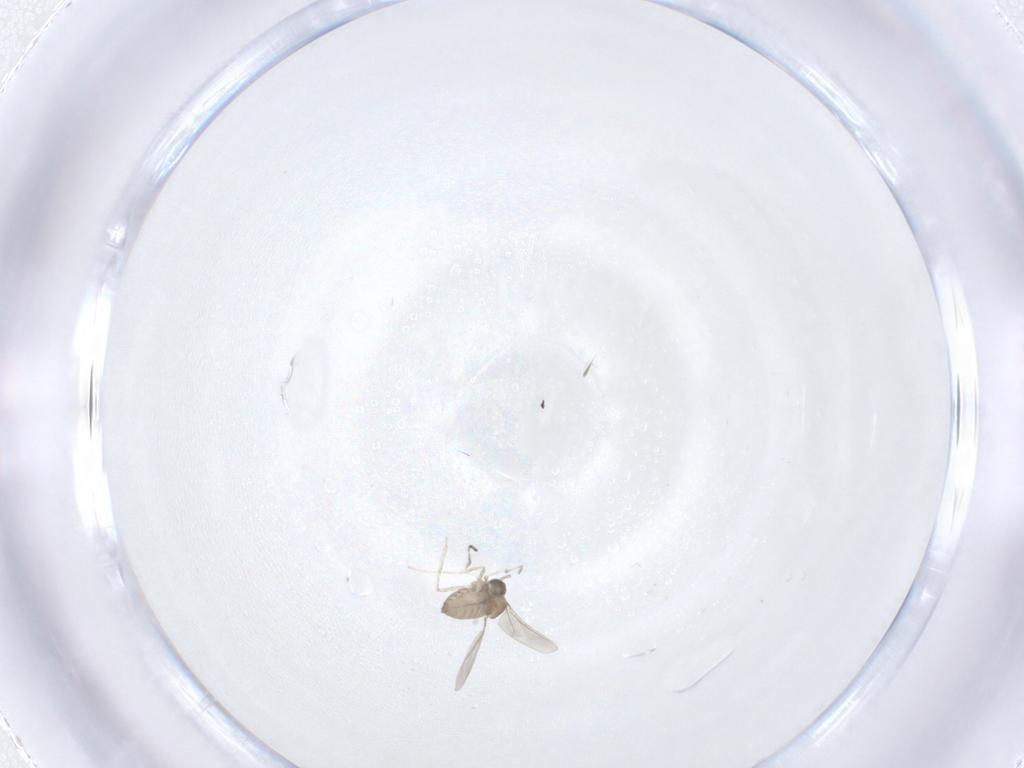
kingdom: Animalia
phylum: Arthropoda
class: Insecta
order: Diptera
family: Cecidomyiidae
